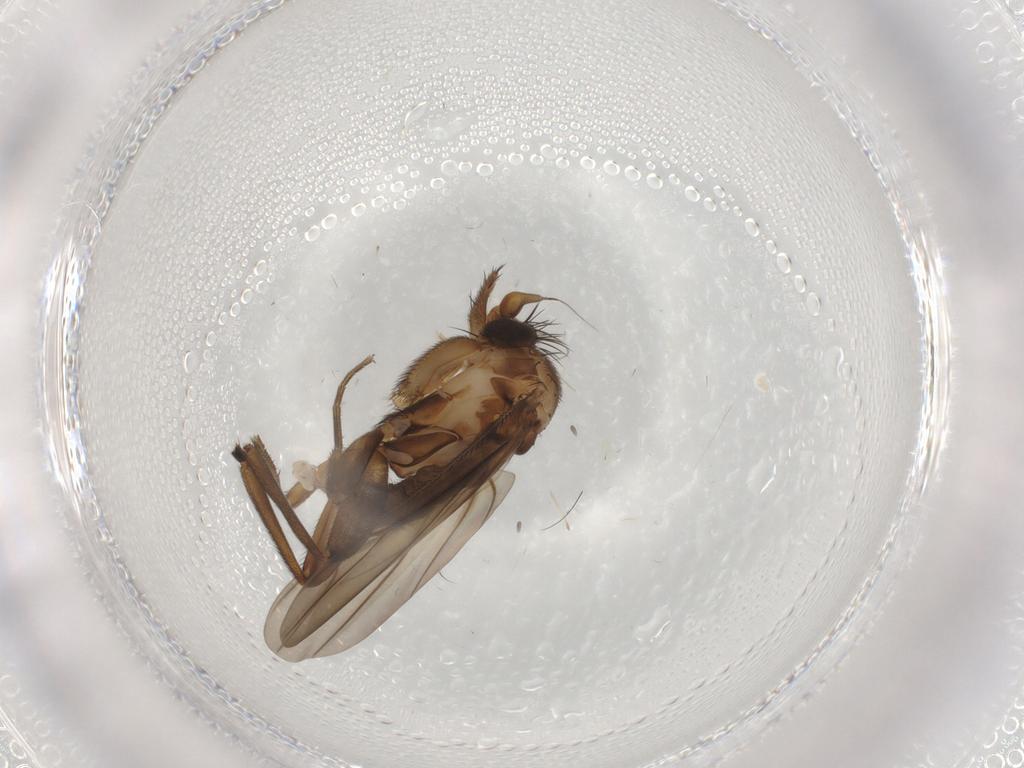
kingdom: Animalia
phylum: Arthropoda
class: Insecta
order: Diptera
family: Phoridae
